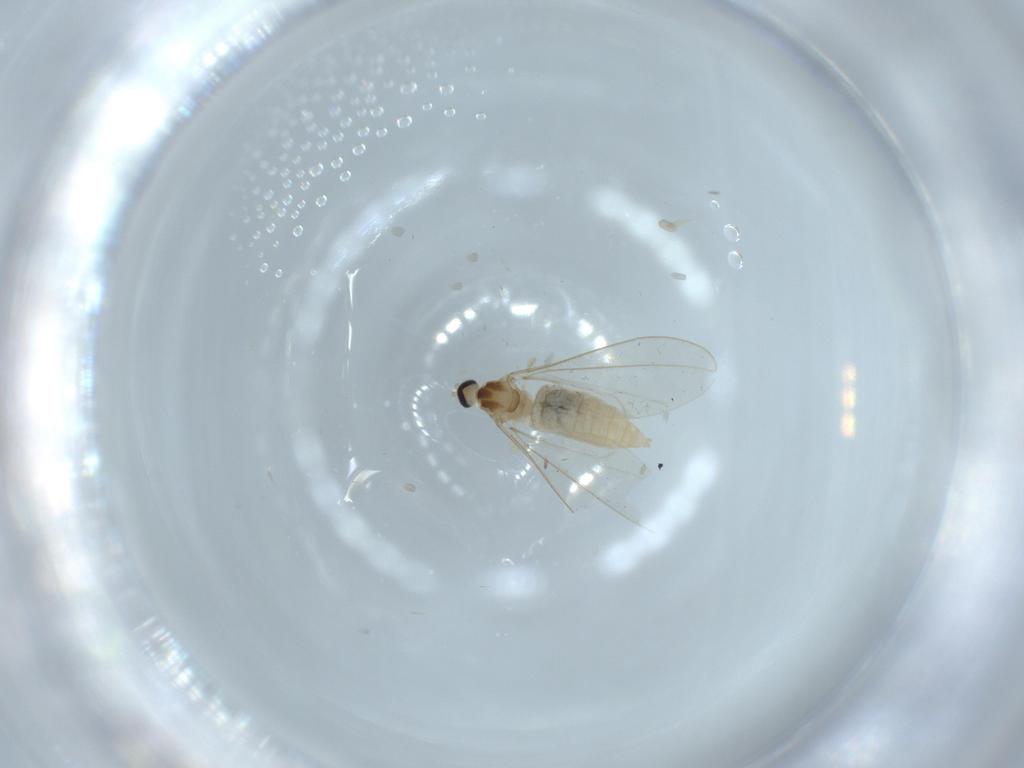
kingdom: Animalia
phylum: Arthropoda
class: Insecta
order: Diptera
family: Cecidomyiidae
